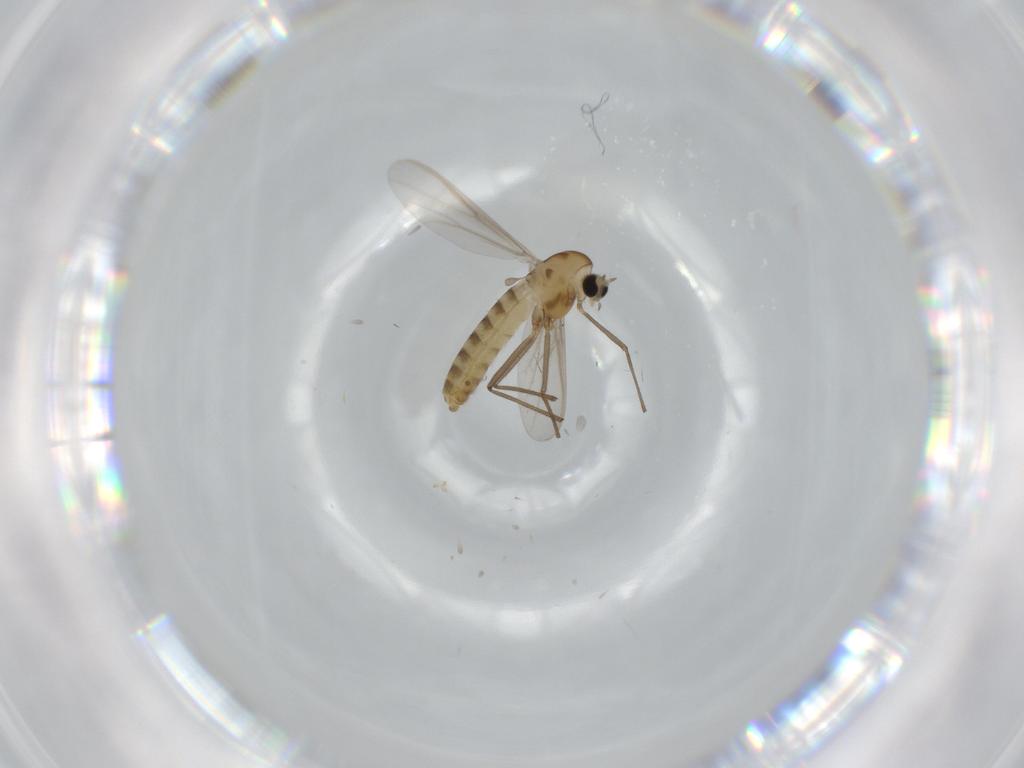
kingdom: Animalia
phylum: Arthropoda
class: Insecta
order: Diptera
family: Chironomidae
